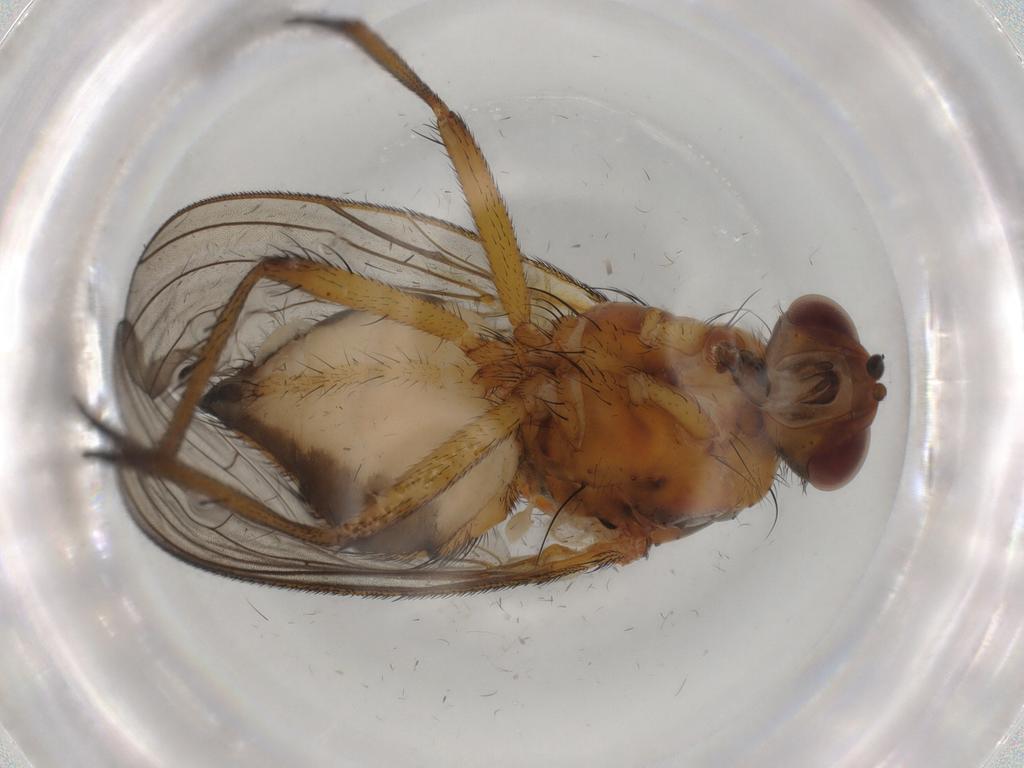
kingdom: Animalia
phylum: Arthropoda
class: Insecta
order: Diptera
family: Anthomyiidae
